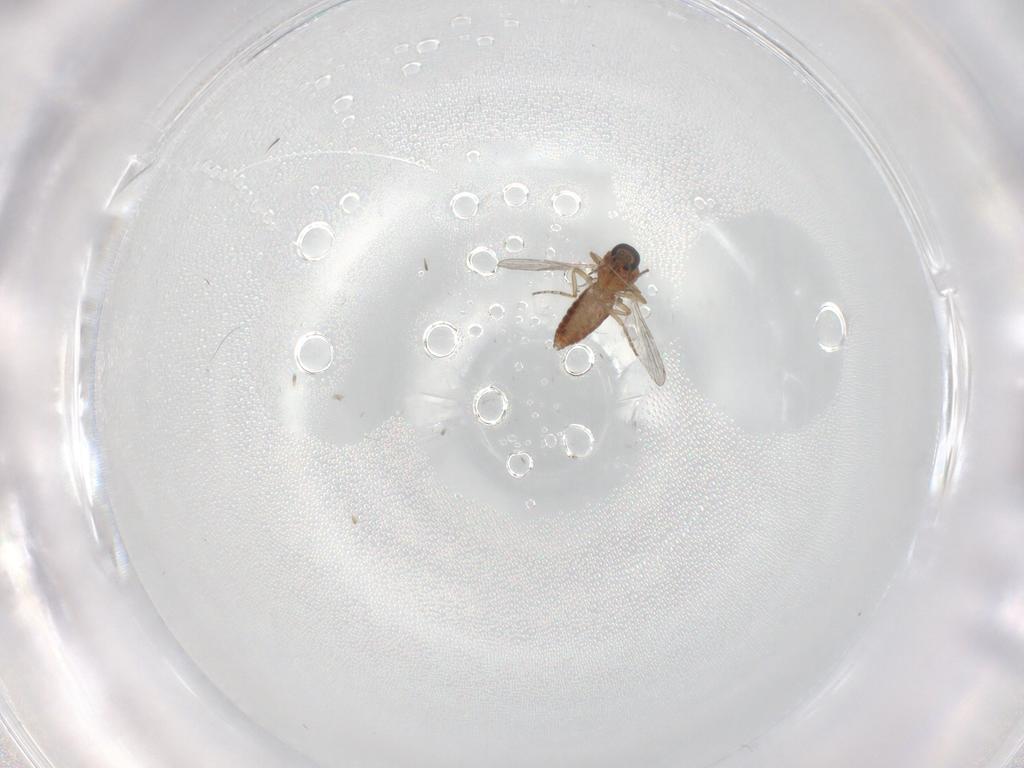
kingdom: Animalia
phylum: Arthropoda
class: Insecta
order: Diptera
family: Ceratopogonidae
